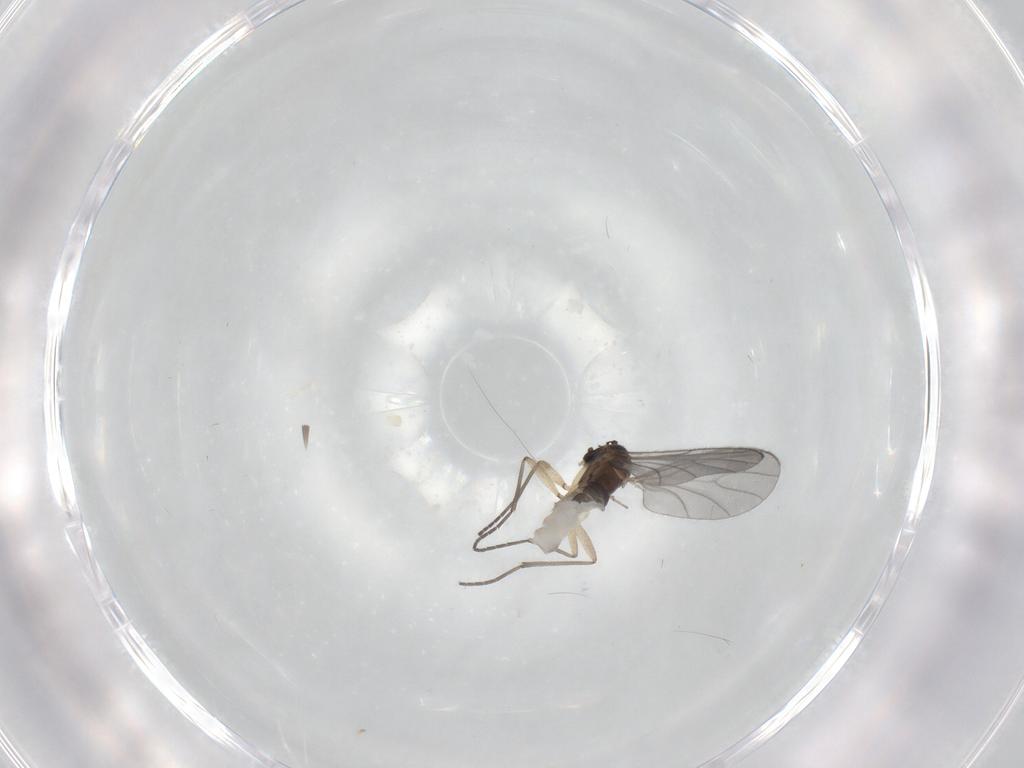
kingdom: Animalia
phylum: Arthropoda
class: Insecta
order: Diptera
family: Sciaridae
